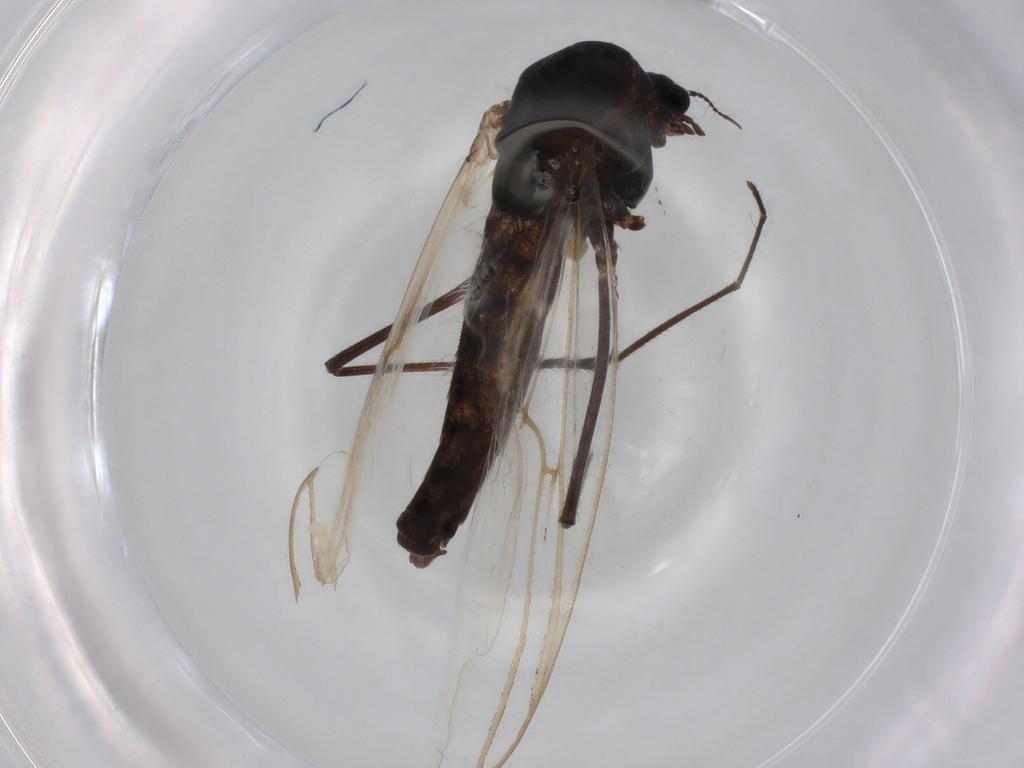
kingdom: Animalia
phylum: Arthropoda
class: Insecta
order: Diptera
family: Chironomidae
